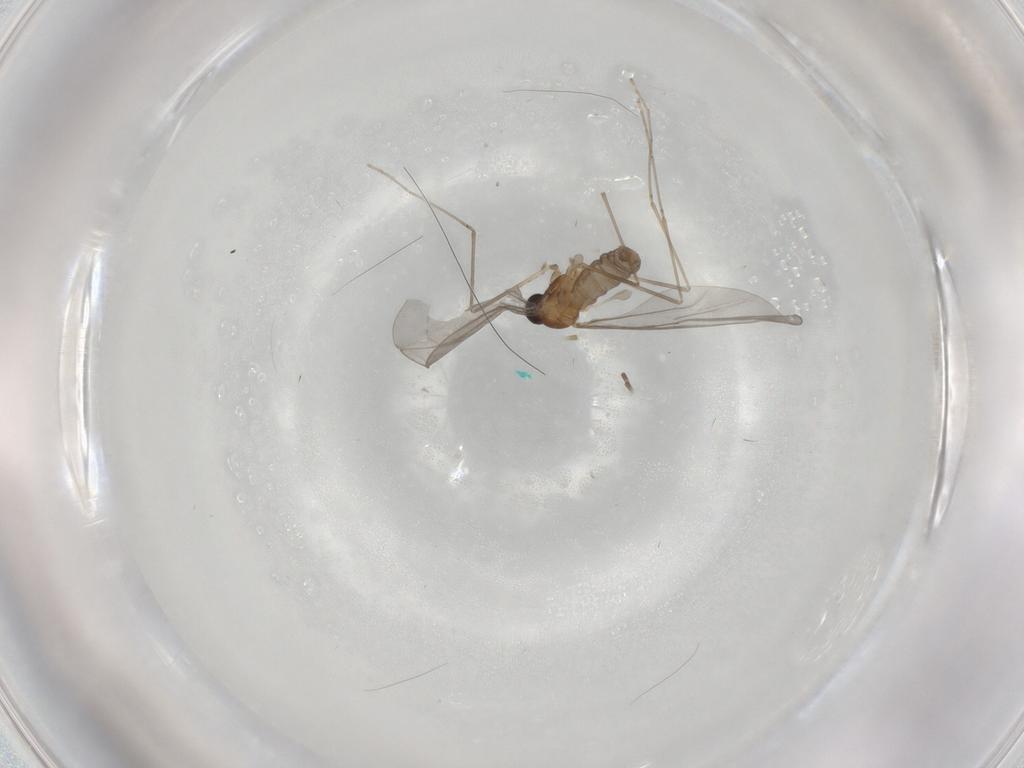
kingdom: Animalia
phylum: Arthropoda
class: Insecta
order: Diptera
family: Cecidomyiidae
